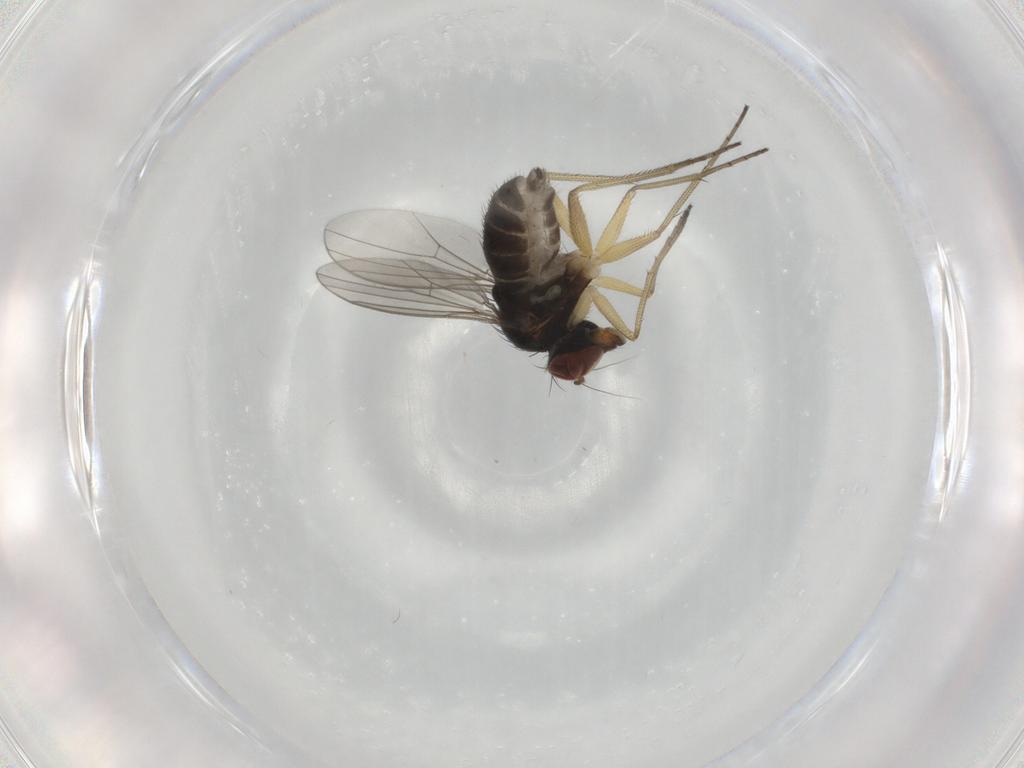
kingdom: Animalia
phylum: Arthropoda
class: Insecta
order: Diptera
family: Dolichopodidae
